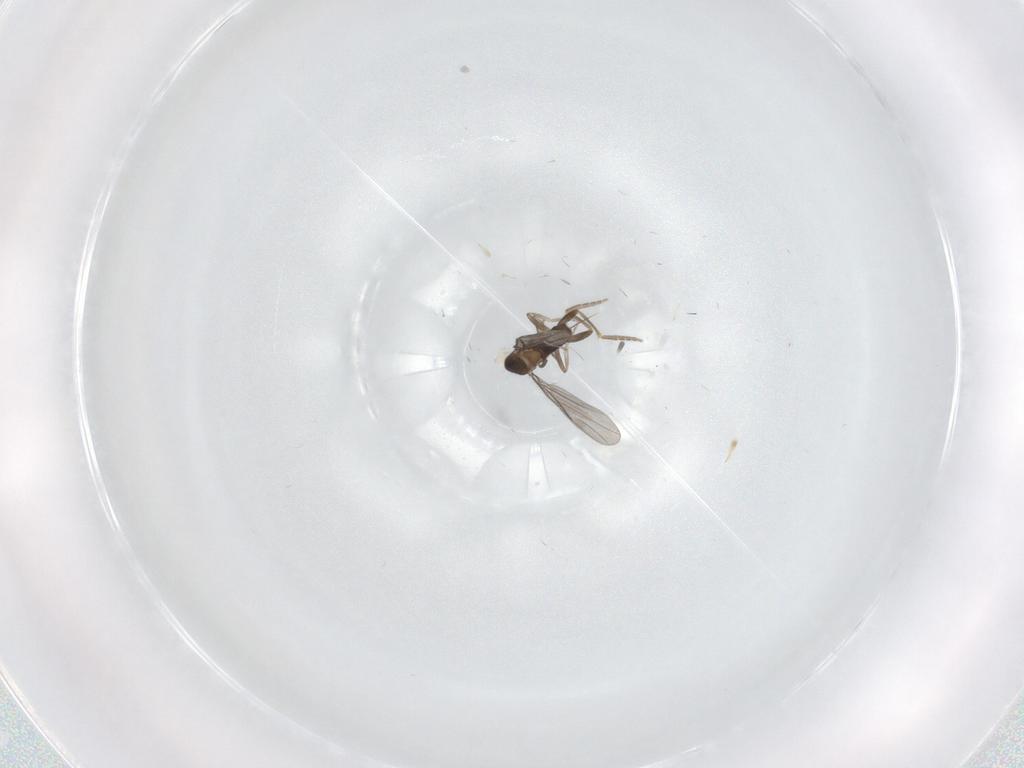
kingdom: Animalia
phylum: Arthropoda
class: Insecta
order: Diptera
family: Chironomidae
